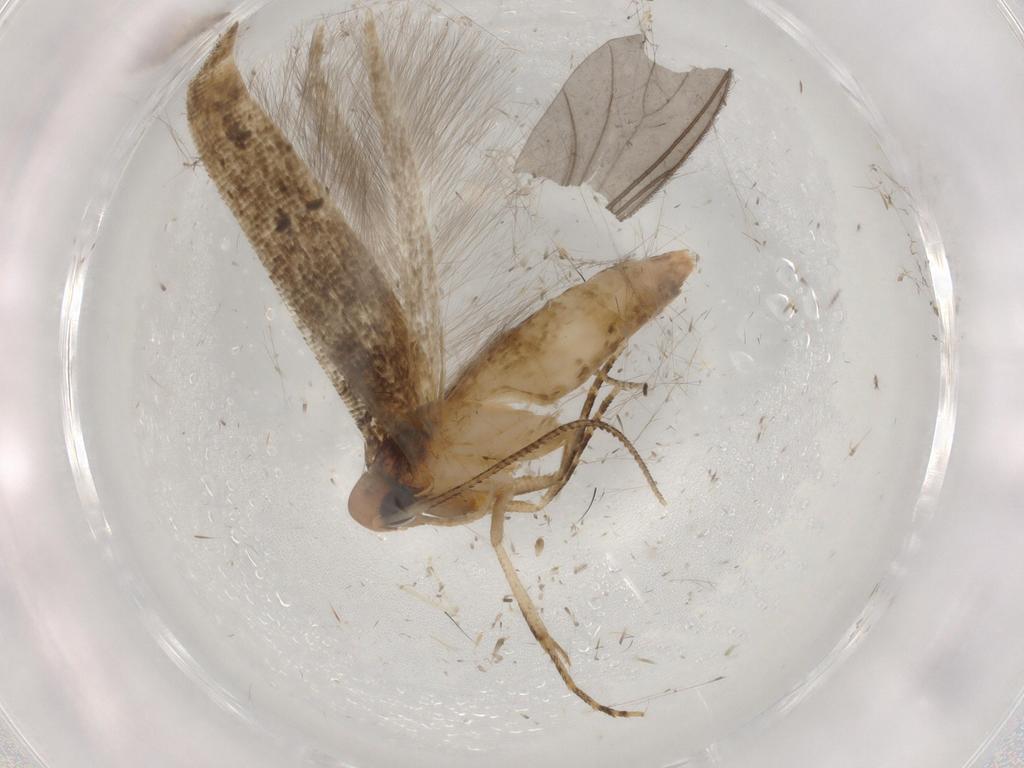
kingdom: Animalia
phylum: Arthropoda
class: Insecta
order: Lepidoptera
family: Gelechiidae
